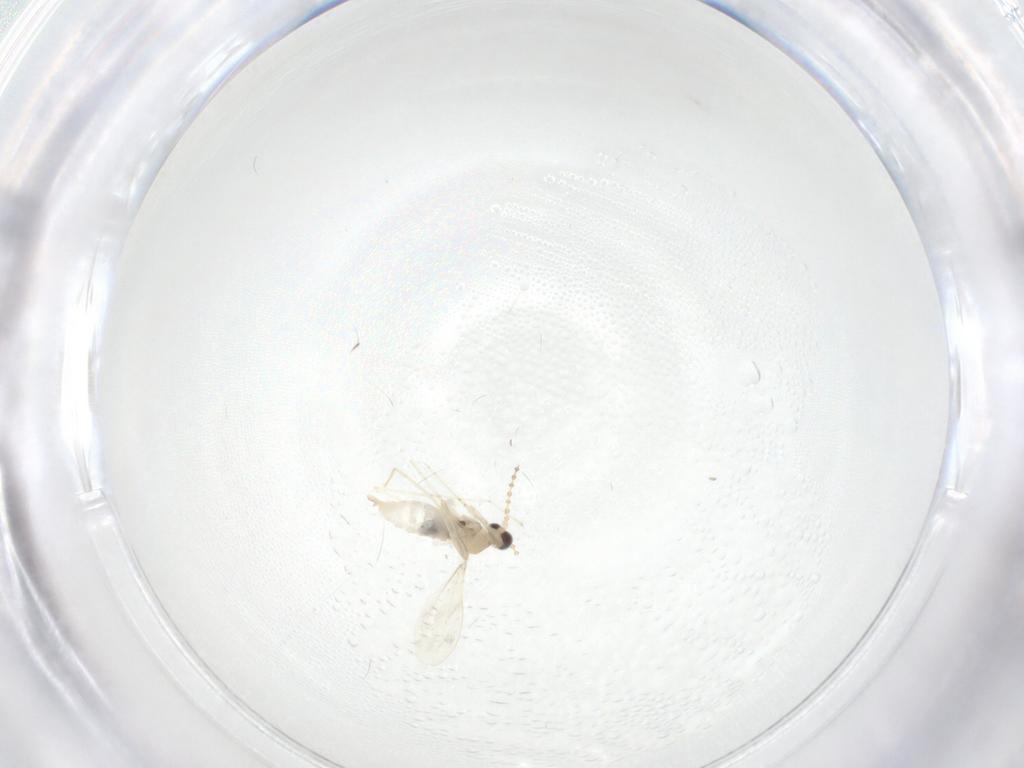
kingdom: Animalia
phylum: Arthropoda
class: Insecta
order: Diptera
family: Cecidomyiidae
